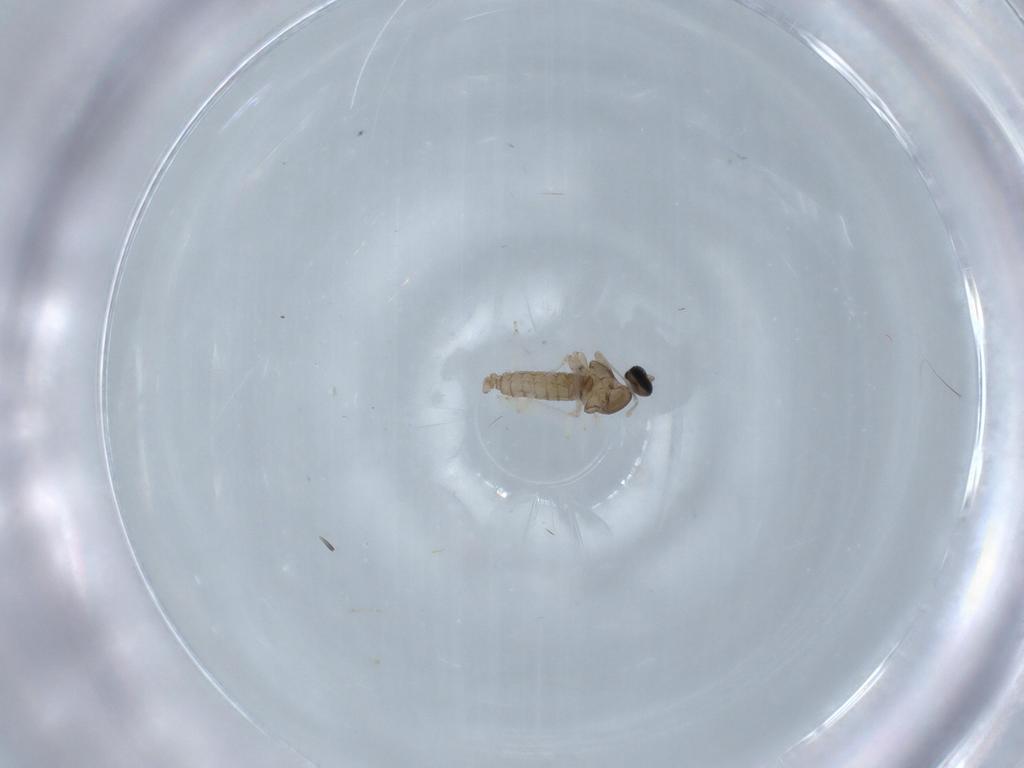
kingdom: Animalia
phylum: Arthropoda
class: Insecta
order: Diptera
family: Cecidomyiidae
